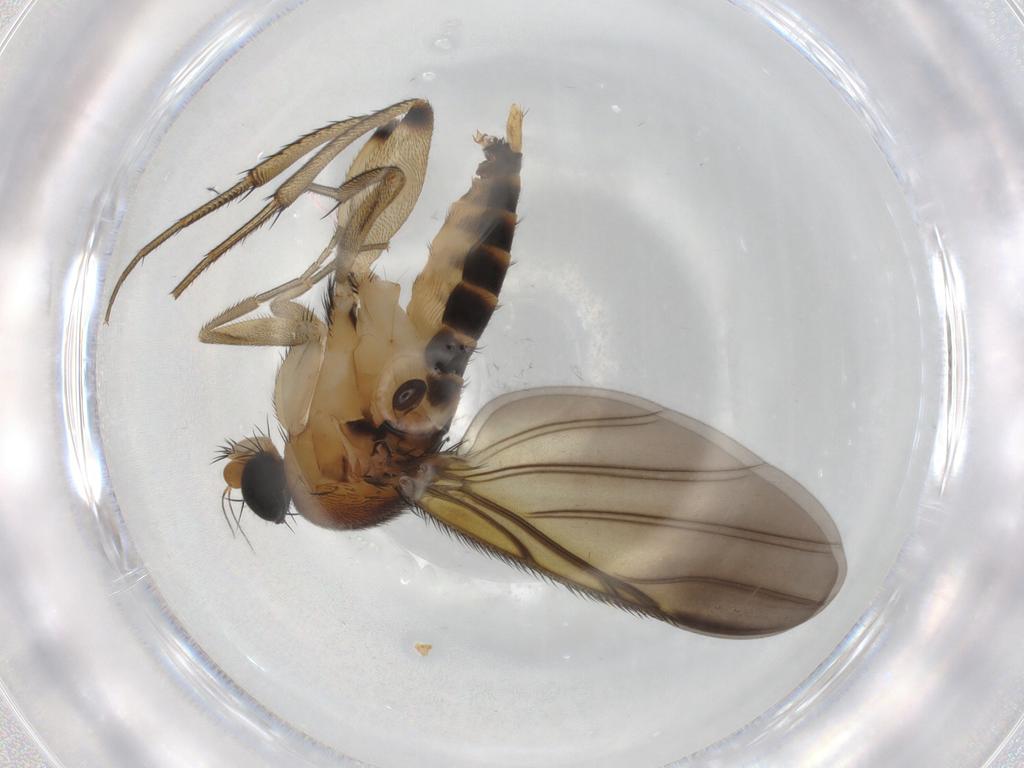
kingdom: Animalia
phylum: Arthropoda
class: Insecta
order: Diptera
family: Phoridae
